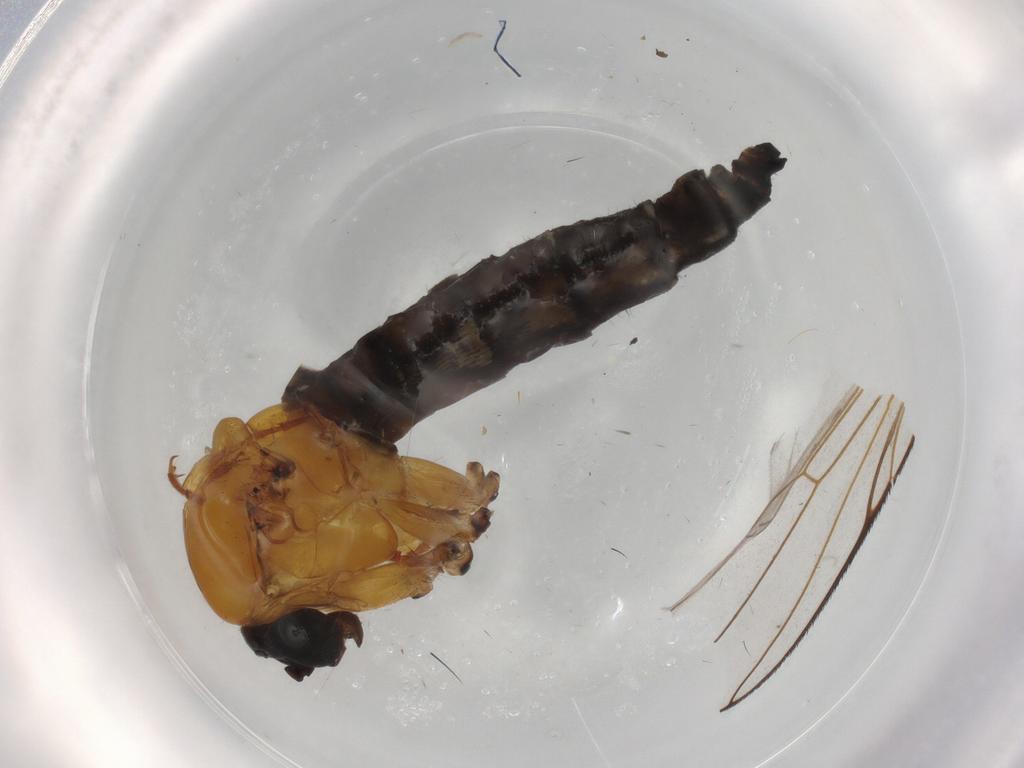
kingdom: Animalia
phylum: Arthropoda
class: Insecta
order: Diptera
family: Sciaridae
